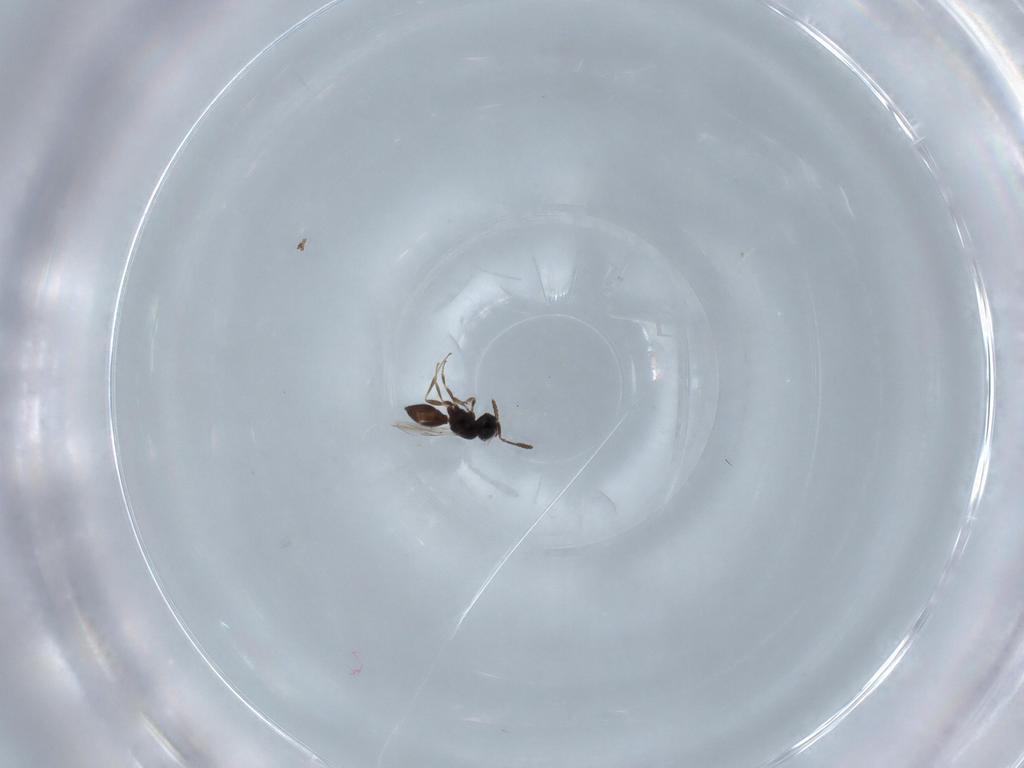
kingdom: Animalia
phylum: Arthropoda
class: Insecta
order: Hymenoptera
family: Scelionidae
